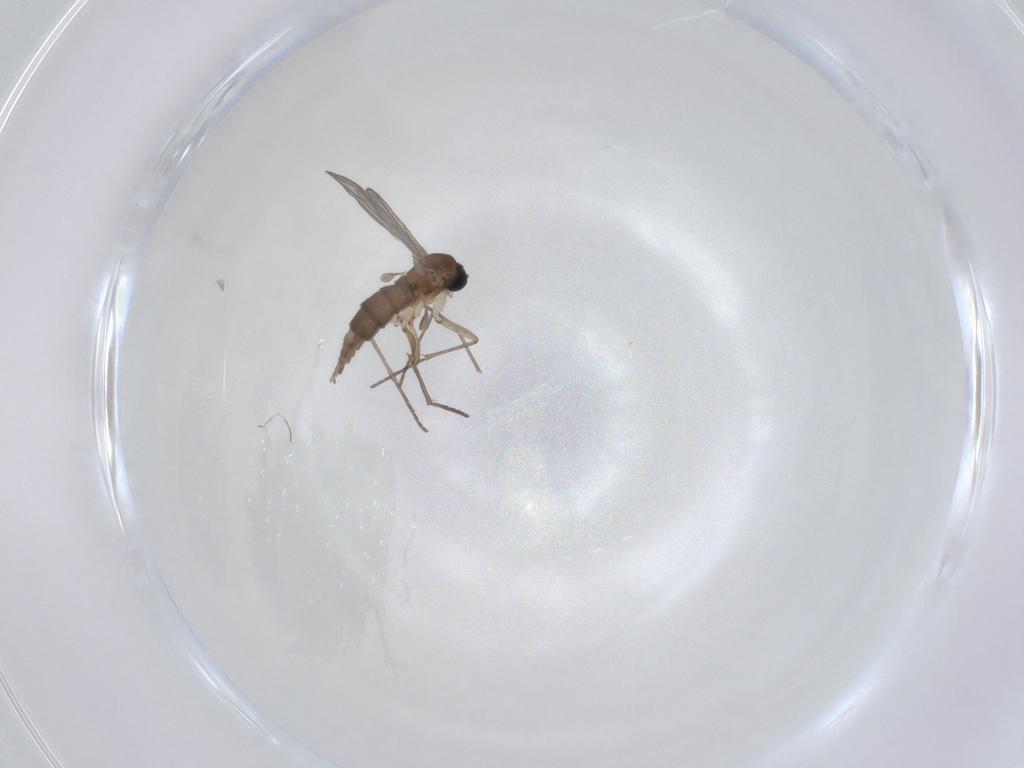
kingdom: Animalia
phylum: Arthropoda
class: Insecta
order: Diptera
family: Sciaridae
